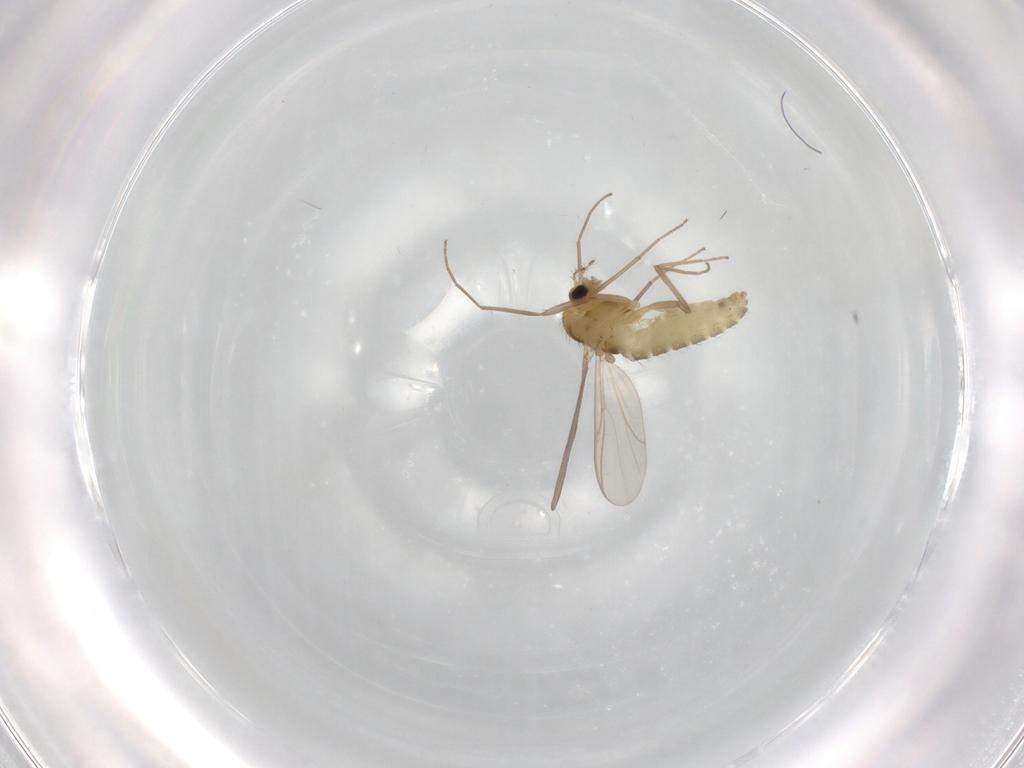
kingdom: Animalia
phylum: Arthropoda
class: Insecta
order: Diptera
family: Chironomidae
